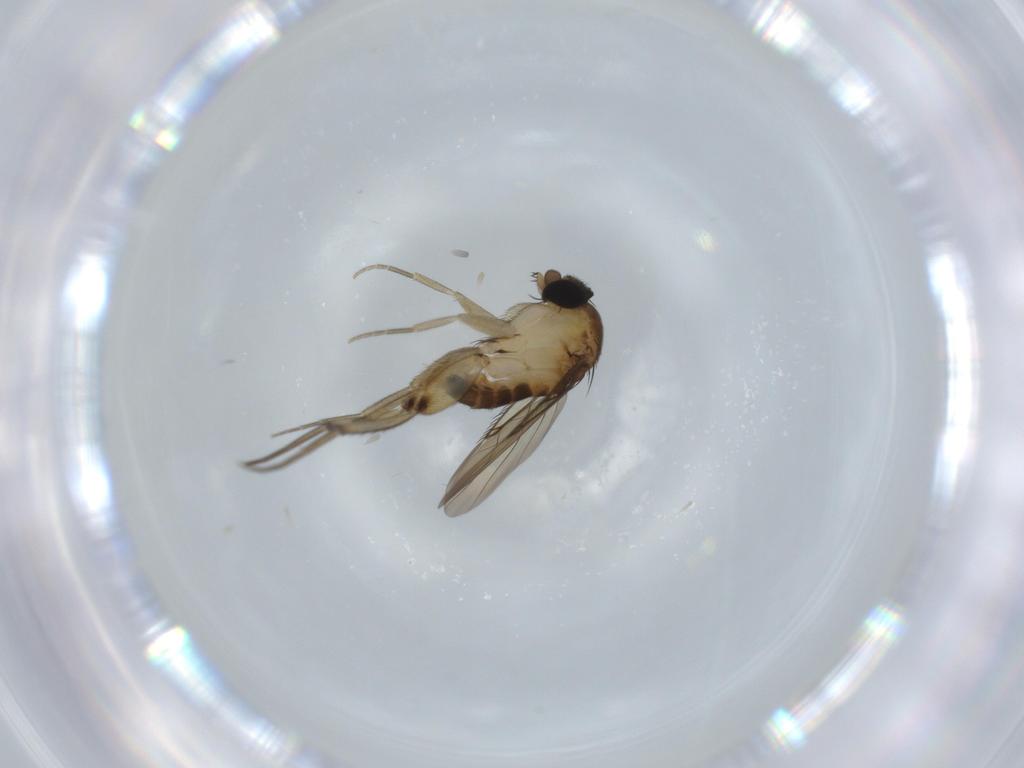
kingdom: Animalia
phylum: Arthropoda
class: Insecta
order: Diptera
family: Phoridae
